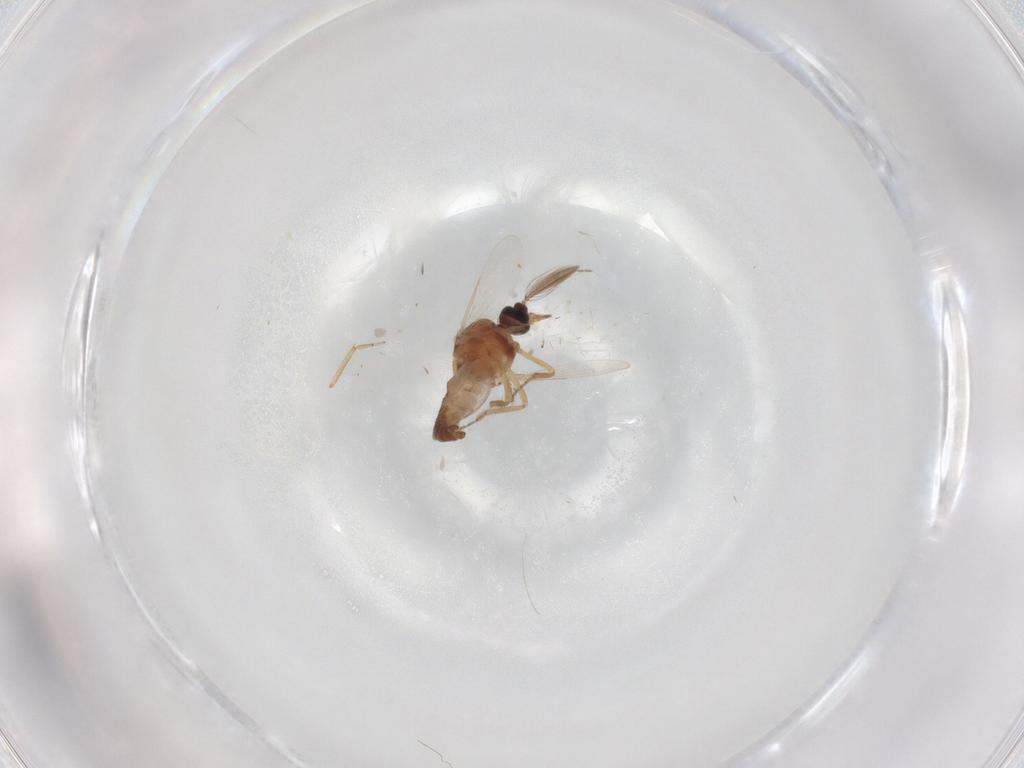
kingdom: Animalia
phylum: Arthropoda
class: Insecta
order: Diptera
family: Ceratopogonidae
